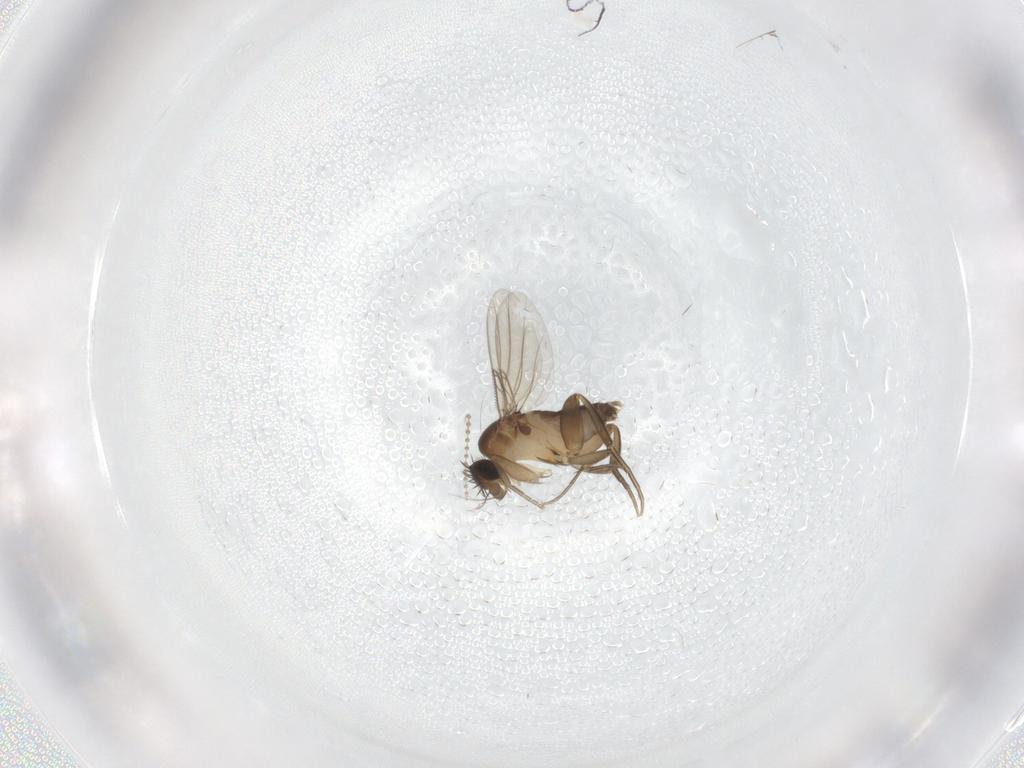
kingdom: Animalia
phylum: Arthropoda
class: Insecta
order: Diptera
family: Phoridae
